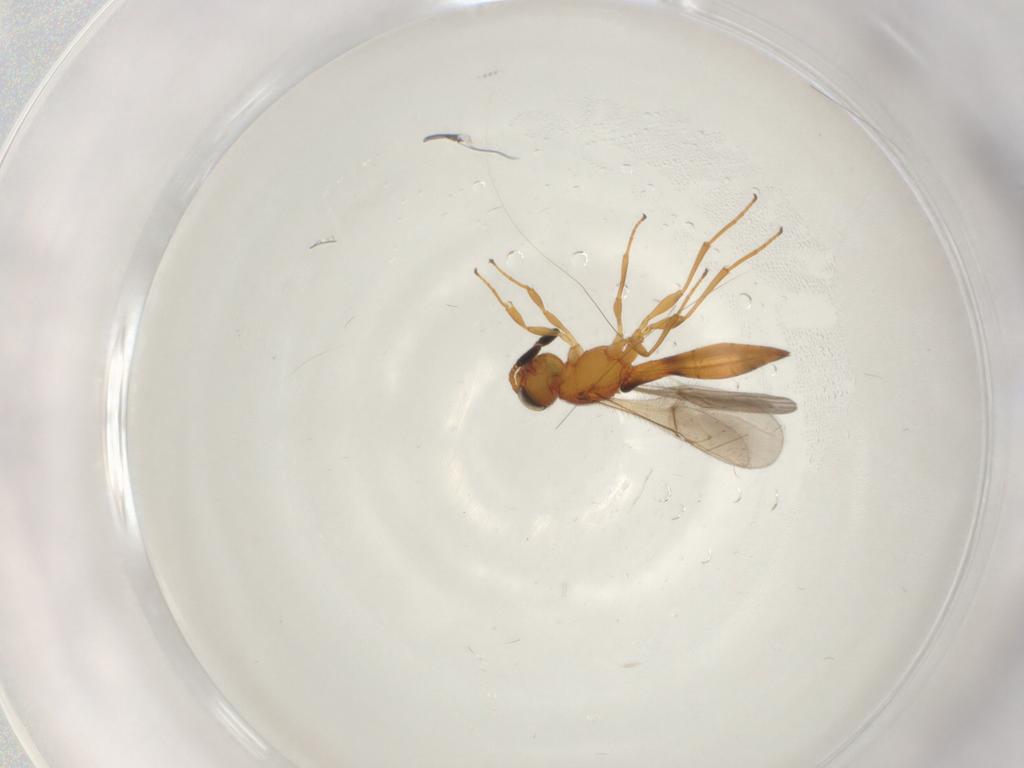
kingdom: Animalia
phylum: Arthropoda
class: Insecta
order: Hymenoptera
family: Scelionidae
